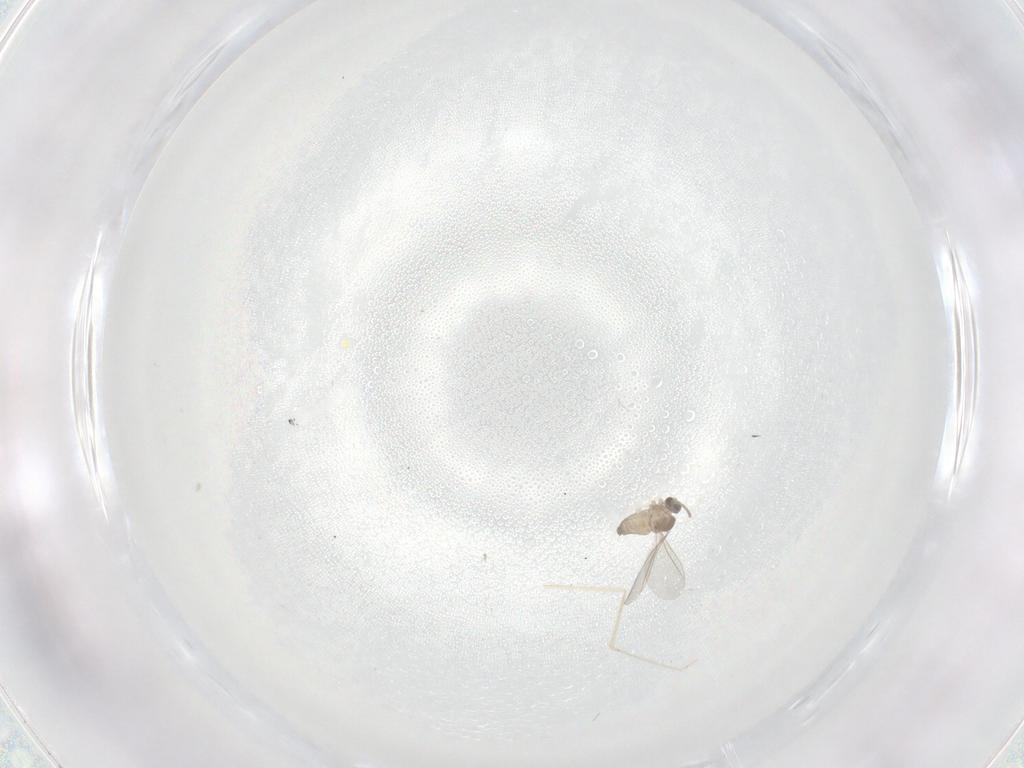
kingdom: Animalia
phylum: Arthropoda
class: Insecta
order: Diptera
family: Cecidomyiidae
